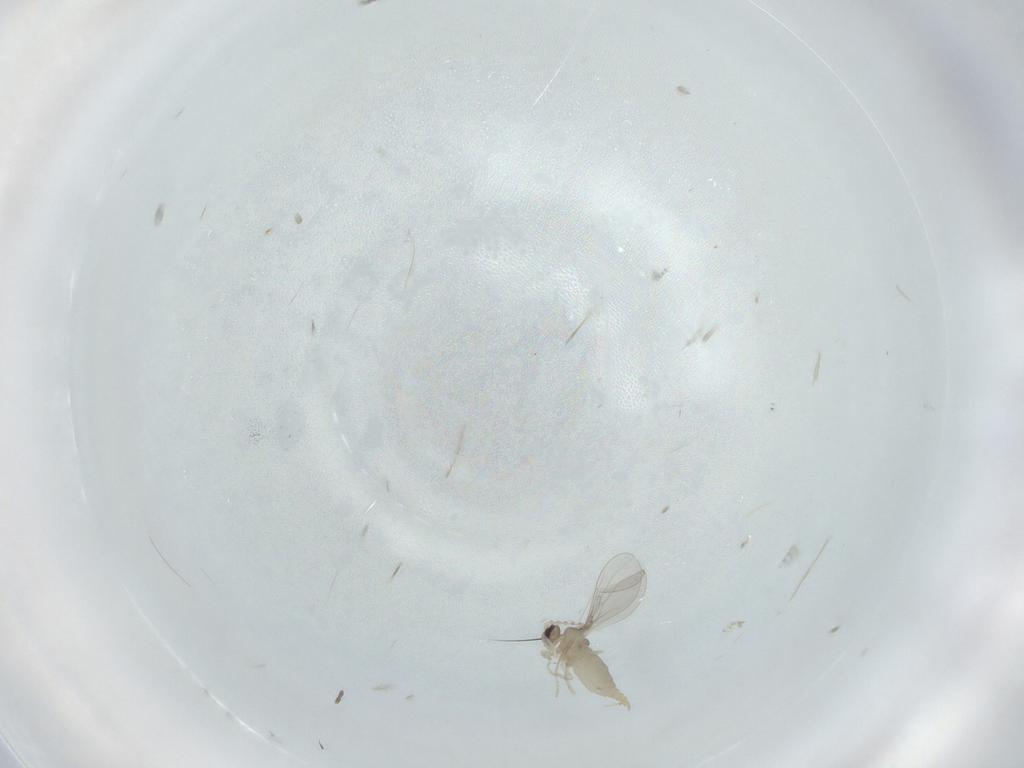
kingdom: Animalia
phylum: Arthropoda
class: Insecta
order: Diptera
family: Cecidomyiidae
